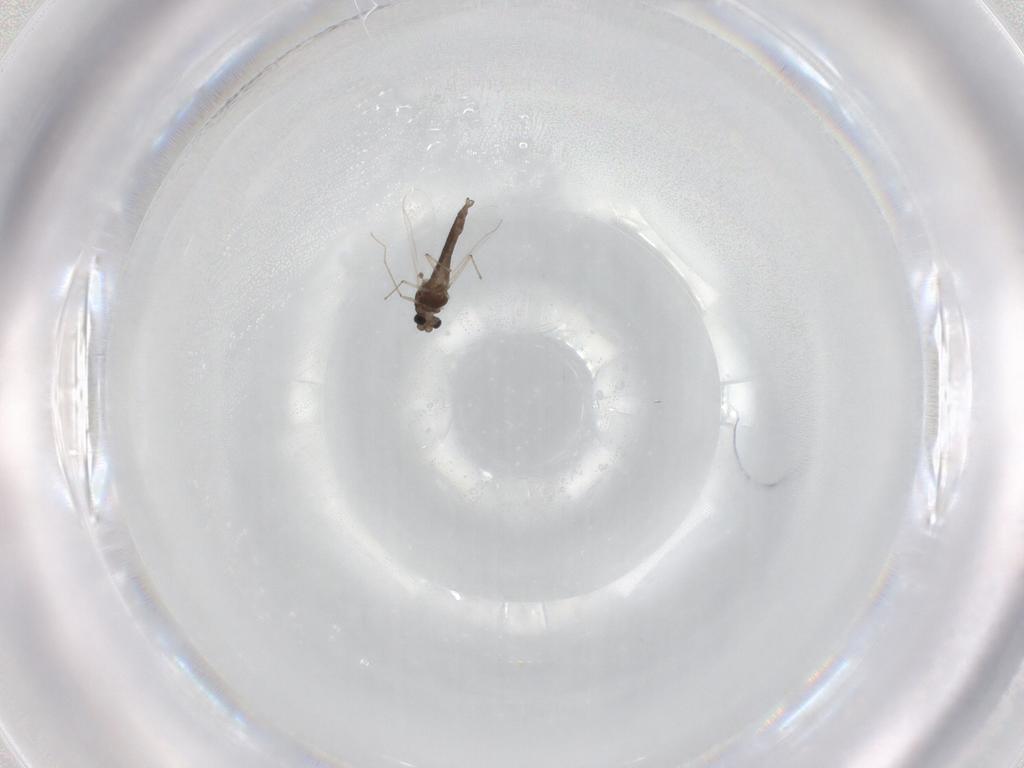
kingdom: Animalia
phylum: Arthropoda
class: Insecta
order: Diptera
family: Chironomidae
